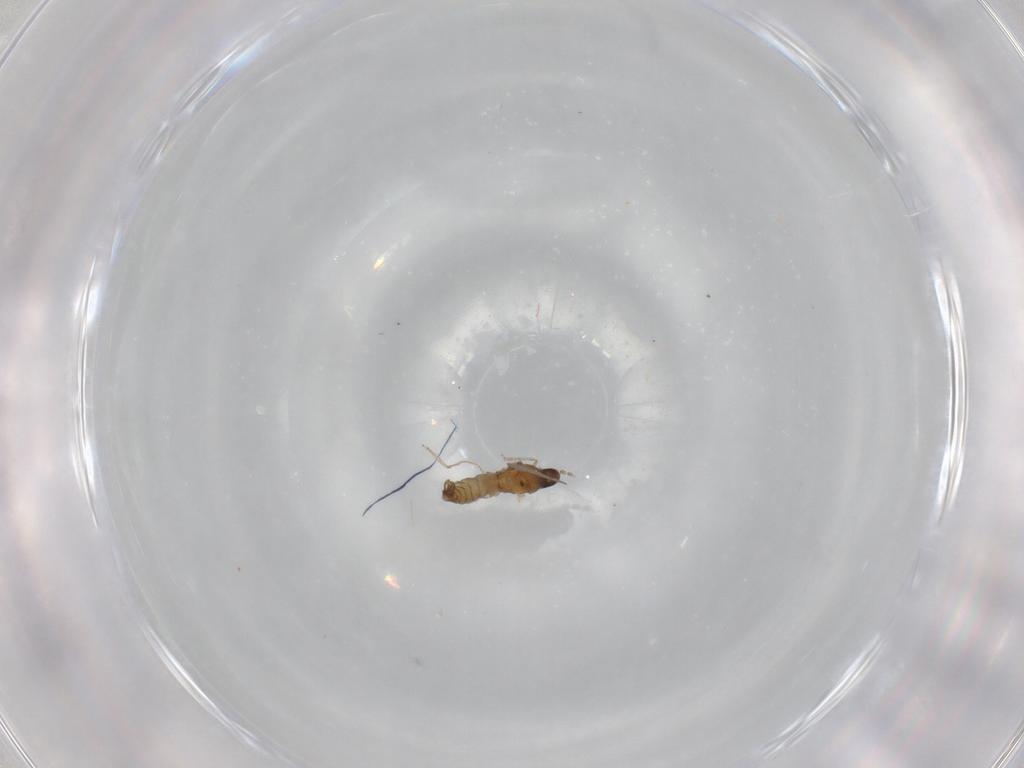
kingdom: Animalia
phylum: Arthropoda
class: Insecta
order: Diptera
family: Cecidomyiidae
